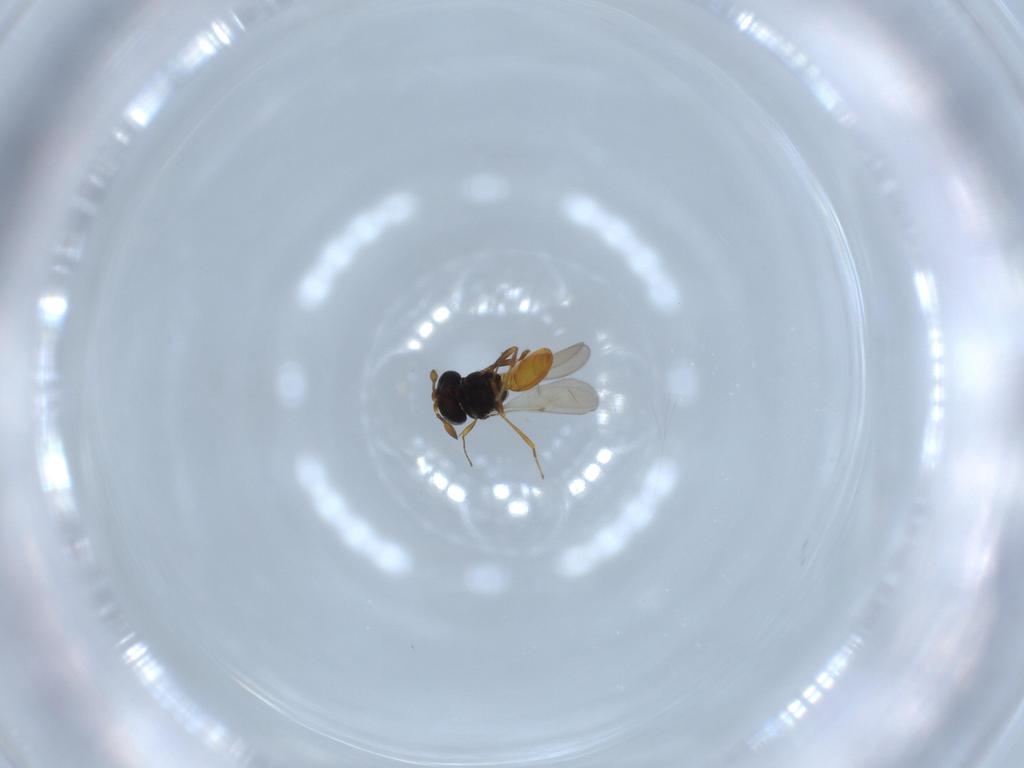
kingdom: Animalia
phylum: Arthropoda
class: Insecta
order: Hymenoptera
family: Scelionidae
